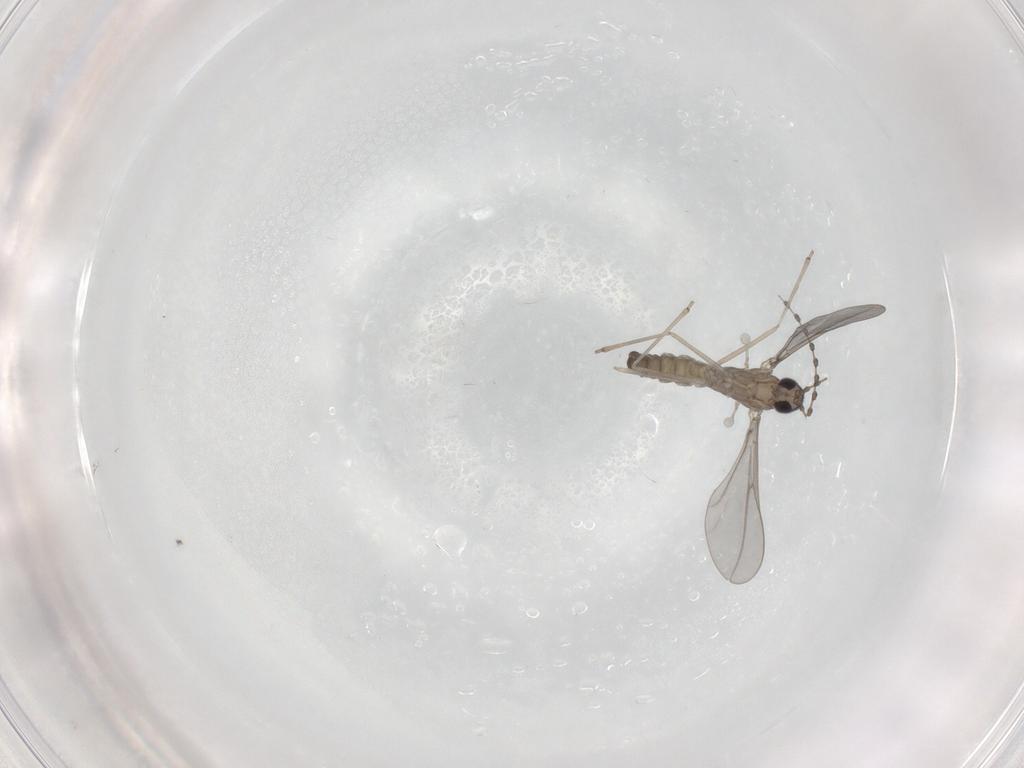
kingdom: Animalia
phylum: Arthropoda
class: Insecta
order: Diptera
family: Sciaridae
